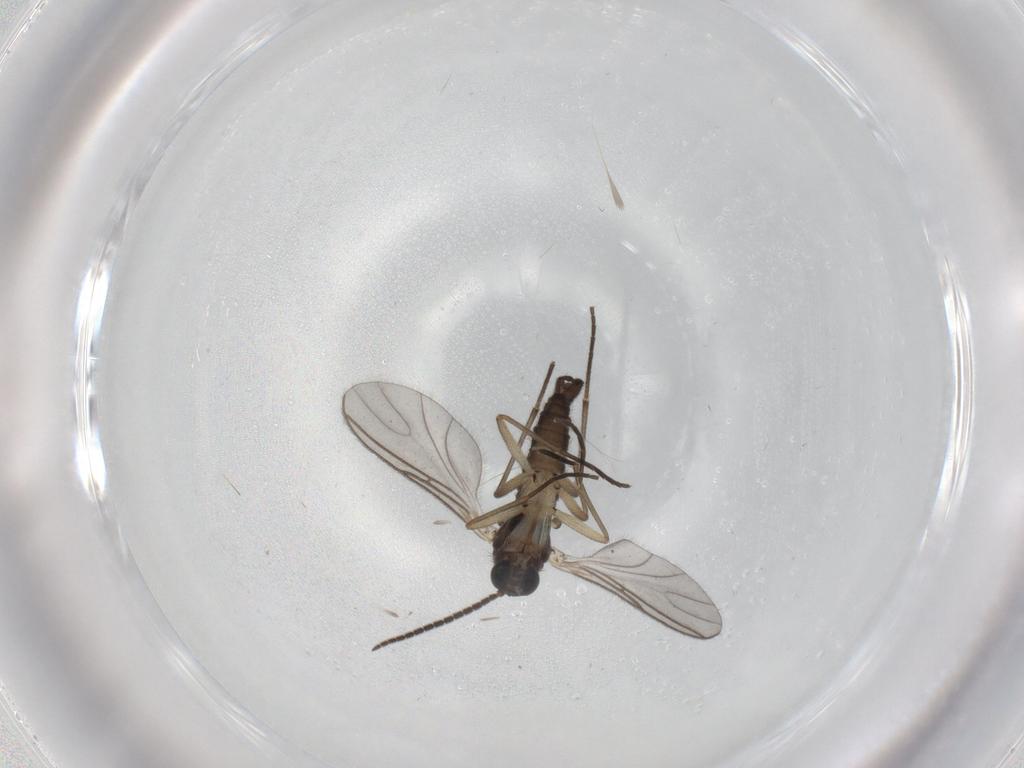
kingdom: Animalia
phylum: Arthropoda
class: Insecta
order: Diptera
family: Sciaridae
